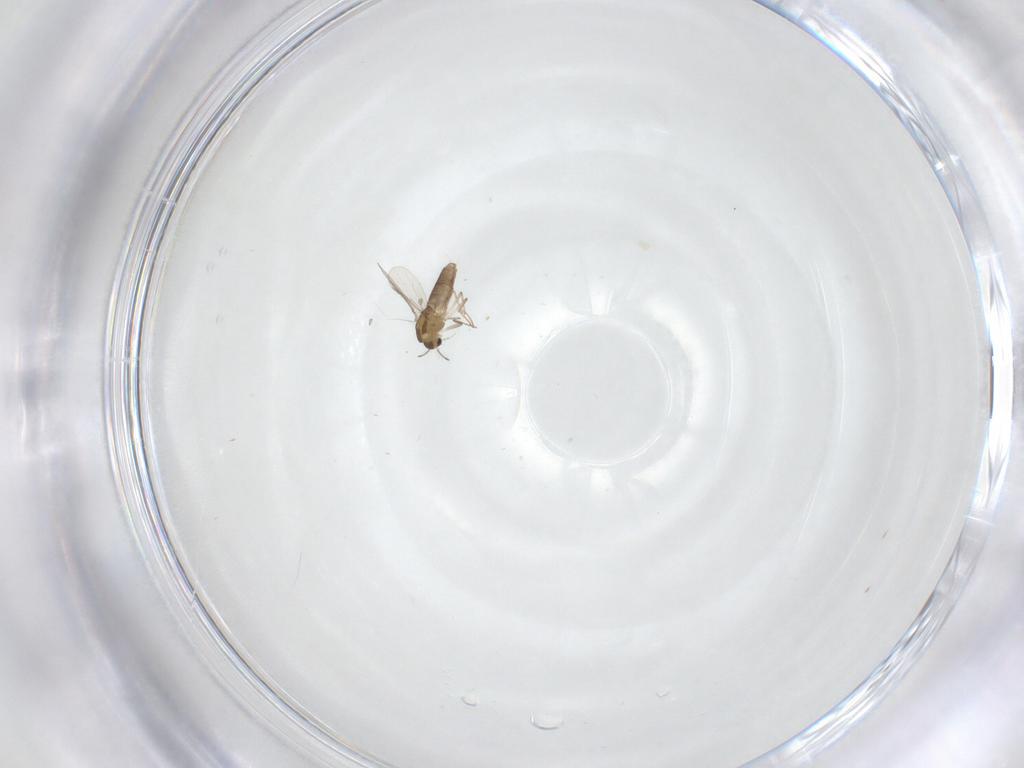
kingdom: Animalia
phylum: Arthropoda
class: Insecta
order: Diptera
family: Chironomidae
